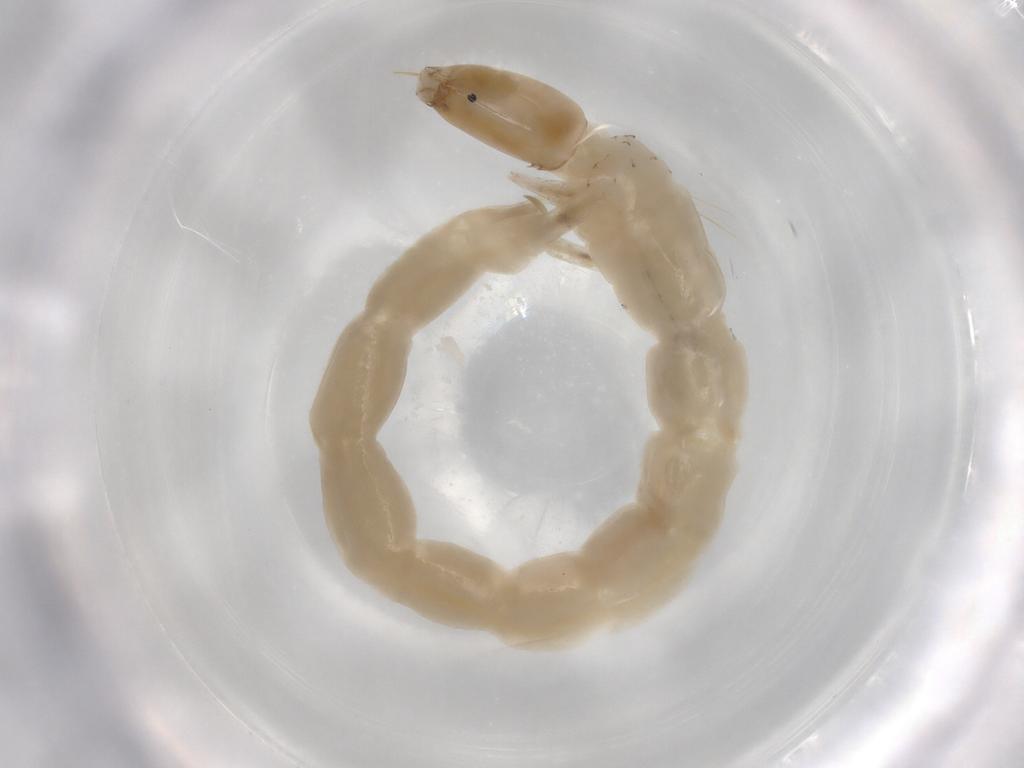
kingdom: Animalia
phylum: Arthropoda
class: Insecta
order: Diptera
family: Chironomidae
